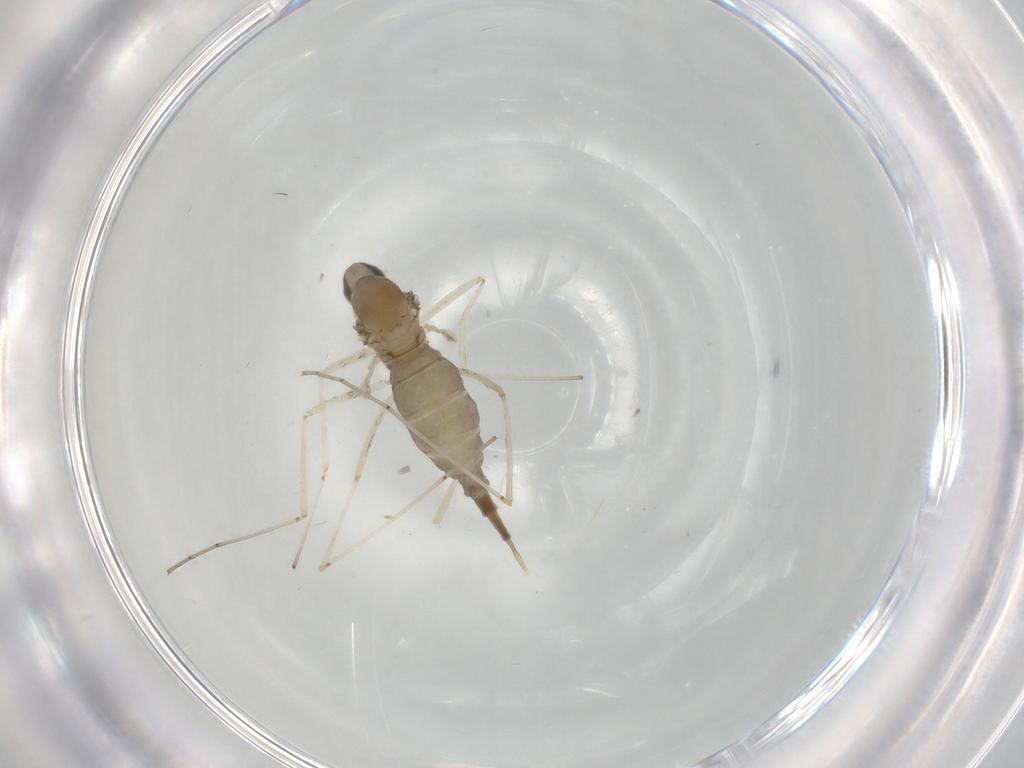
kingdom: Animalia
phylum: Arthropoda
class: Insecta
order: Diptera
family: Cecidomyiidae
